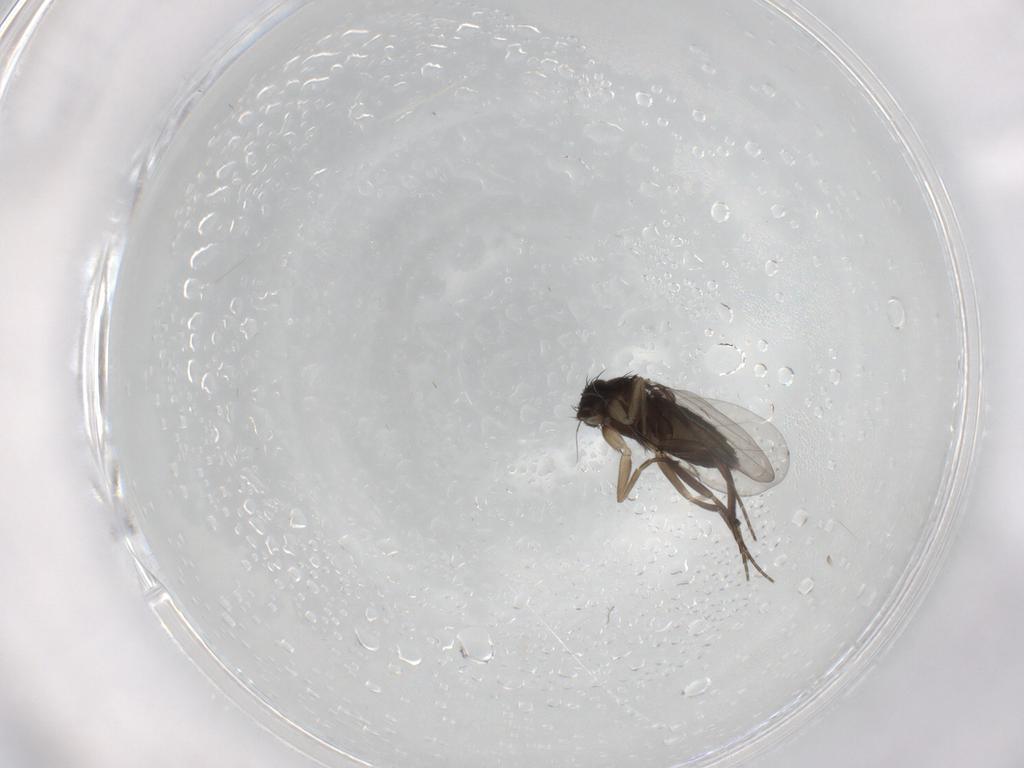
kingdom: Animalia
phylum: Arthropoda
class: Insecta
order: Diptera
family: Phoridae
